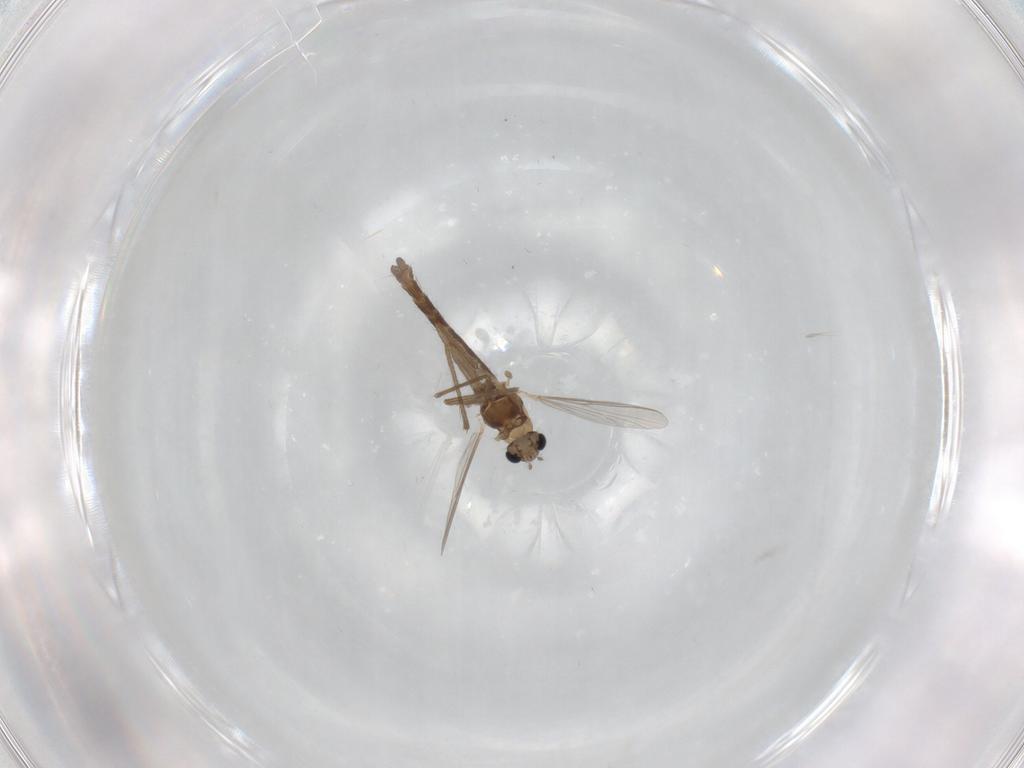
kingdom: Animalia
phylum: Arthropoda
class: Insecta
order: Diptera
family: Chironomidae
